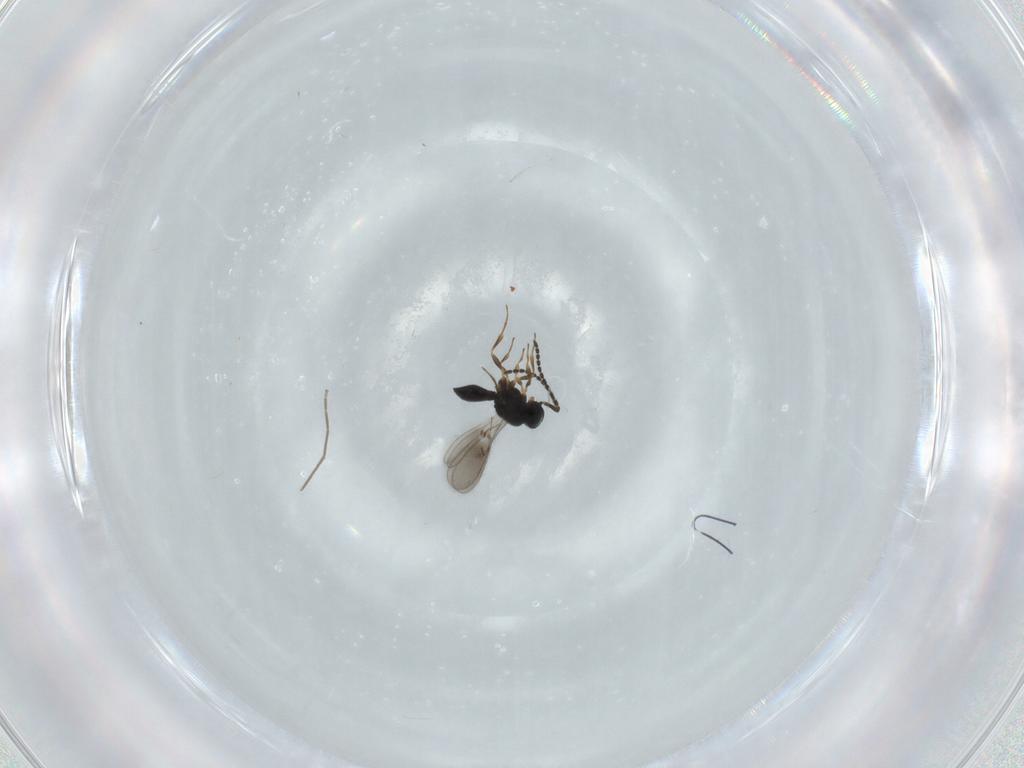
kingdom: Animalia
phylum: Arthropoda
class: Insecta
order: Hymenoptera
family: Scelionidae
